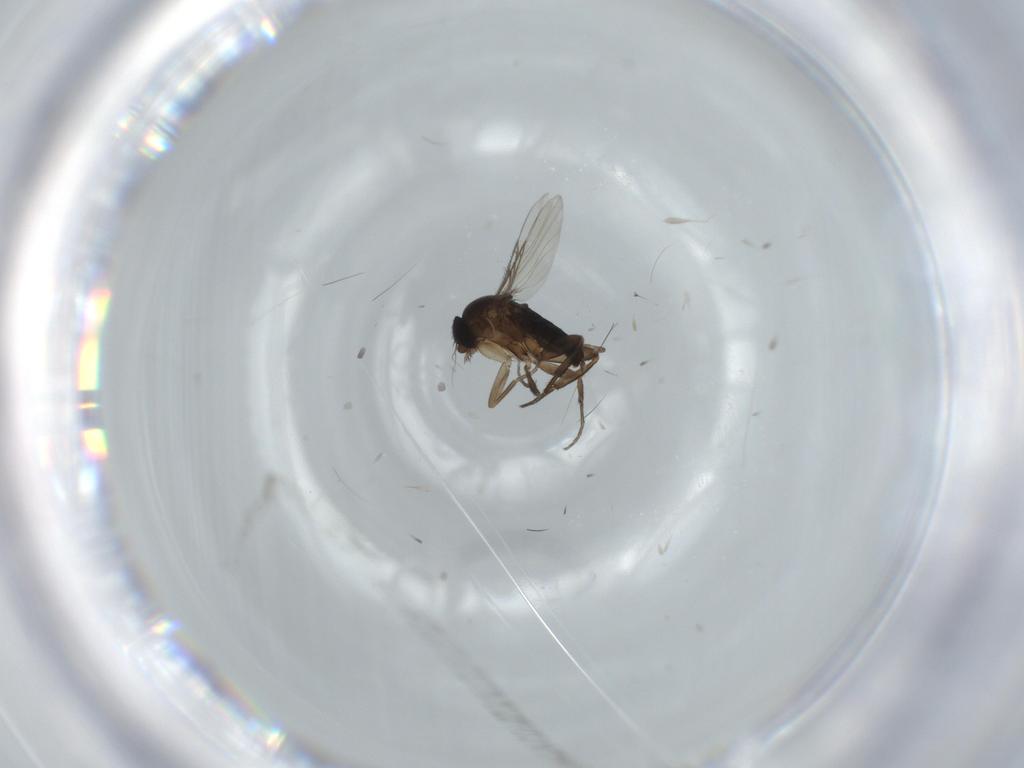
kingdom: Animalia
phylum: Arthropoda
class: Insecta
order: Diptera
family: Phoridae
